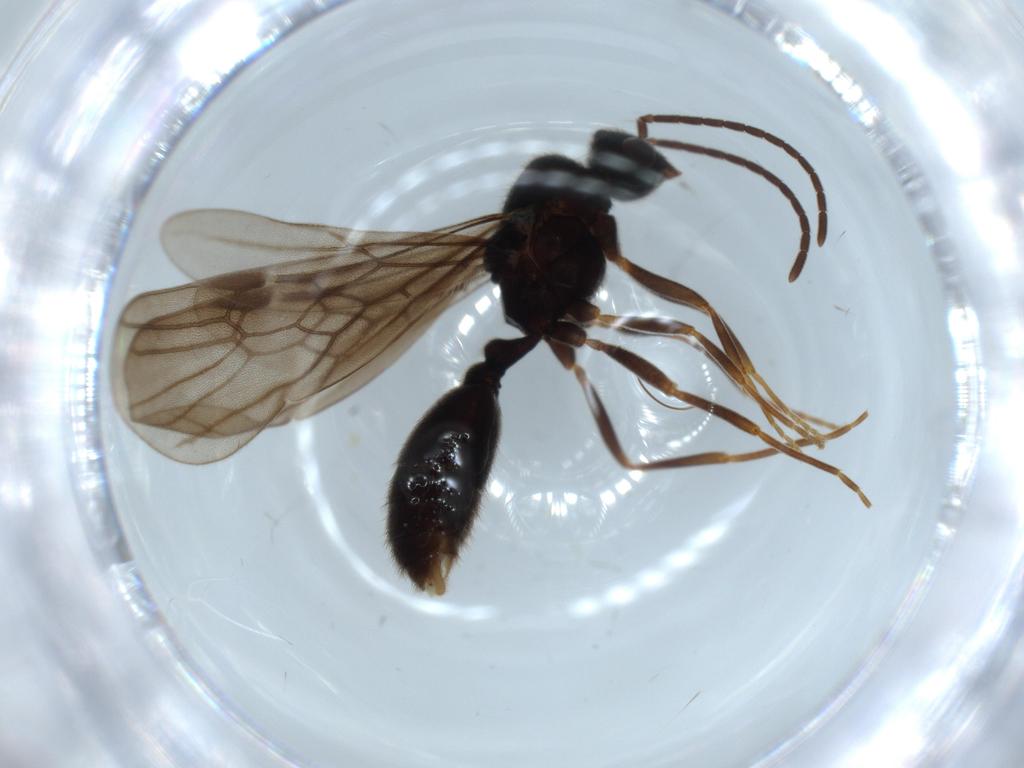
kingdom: Animalia
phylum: Arthropoda
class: Insecta
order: Hymenoptera
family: Formicidae
